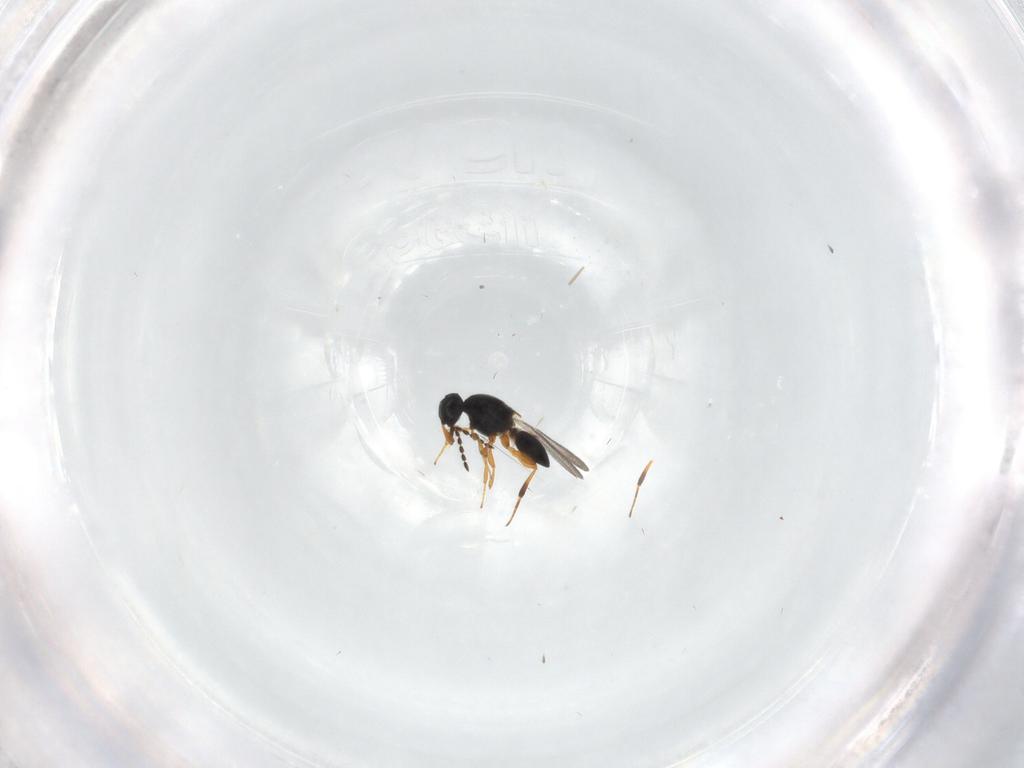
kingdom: Animalia
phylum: Arthropoda
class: Insecta
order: Hymenoptera
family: Platygastridae
